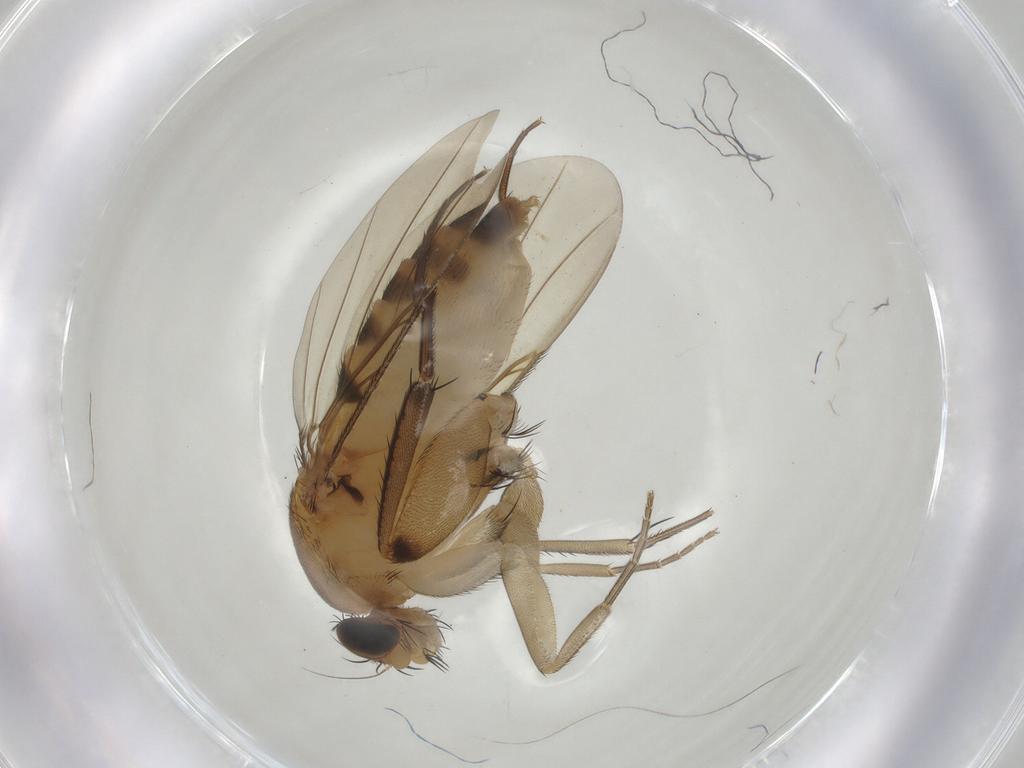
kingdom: Animalia
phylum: Arthropoda
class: Insecta
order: Diptera
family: Phoridae
